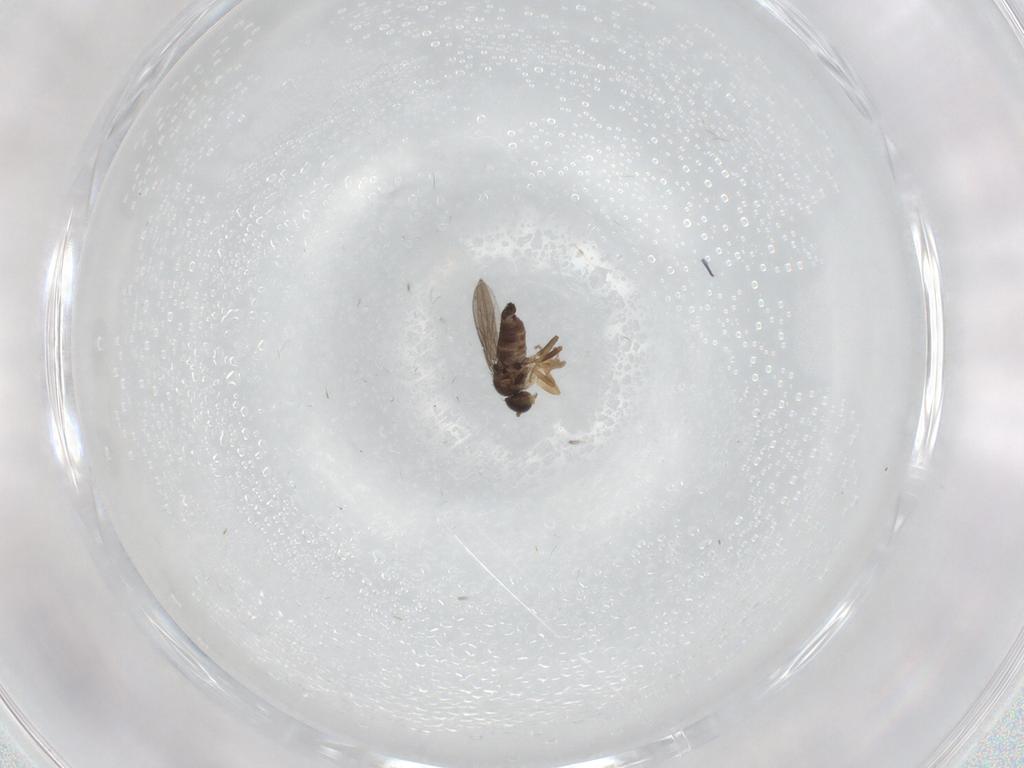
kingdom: Animalia
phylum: Arthropoda
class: Insecta
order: Diptera
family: Hybotidae
